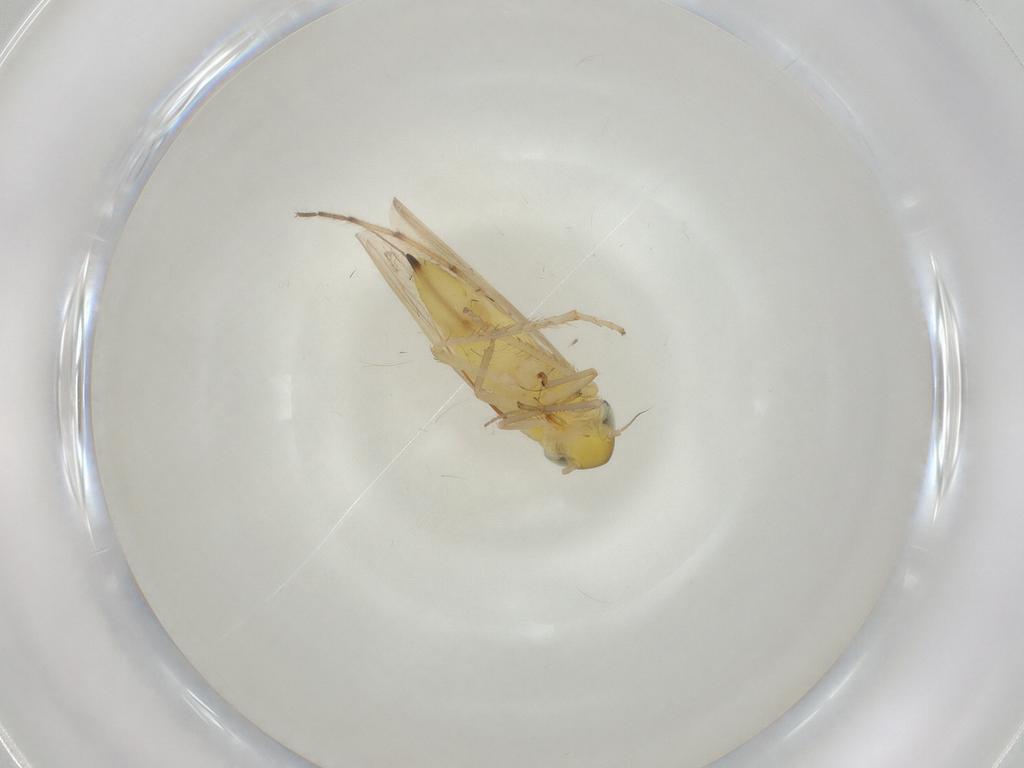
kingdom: Animalia
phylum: Arthropoda
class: Insecta
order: Hemiptera
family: Cicadellidae
